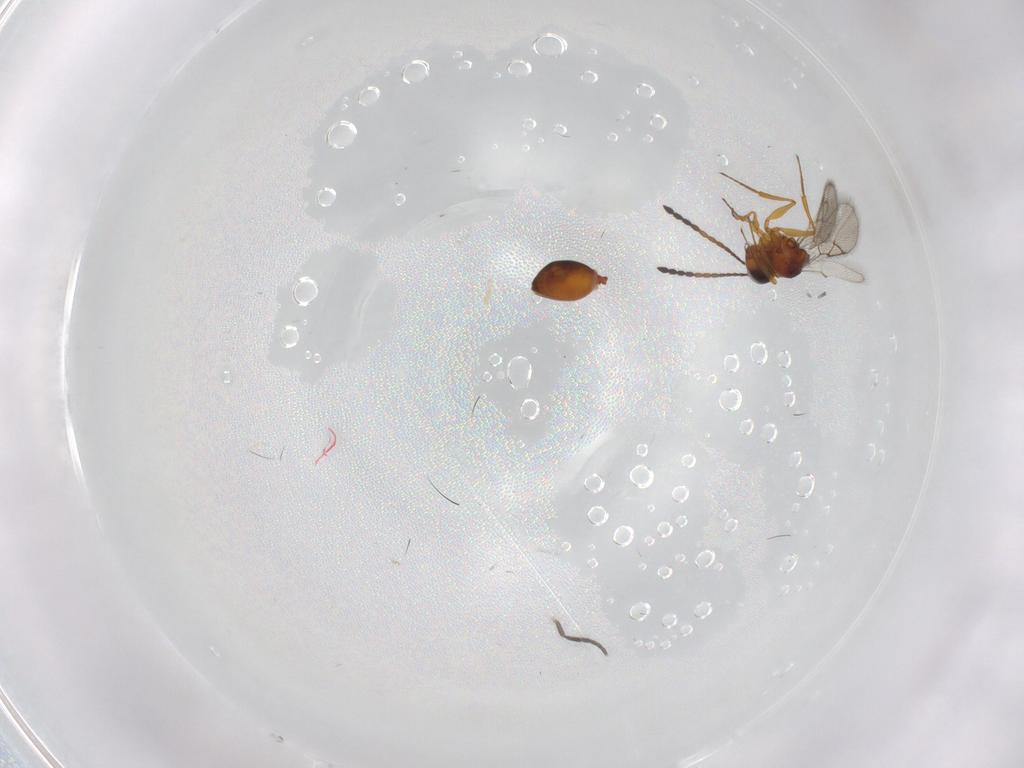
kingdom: Animalia
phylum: Arthropoda
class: Insecta
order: Hymenoptera
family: Figitidae
